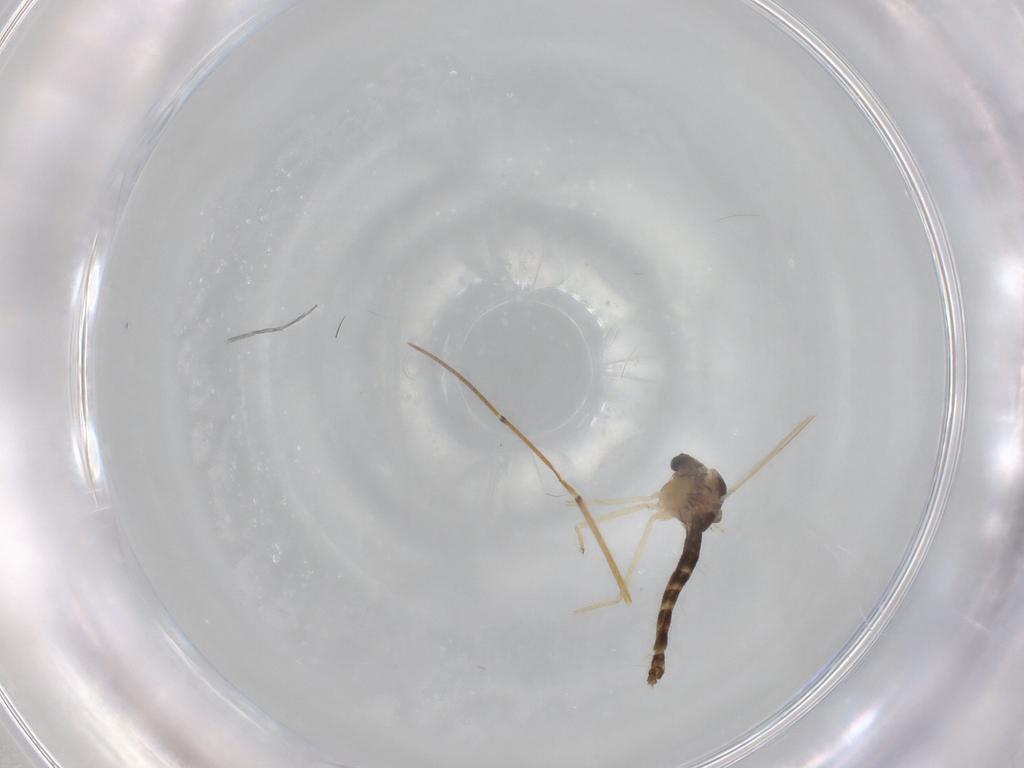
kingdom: Animalia
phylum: Arthropoda
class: Insecta
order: Diptera
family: Chironomidae
